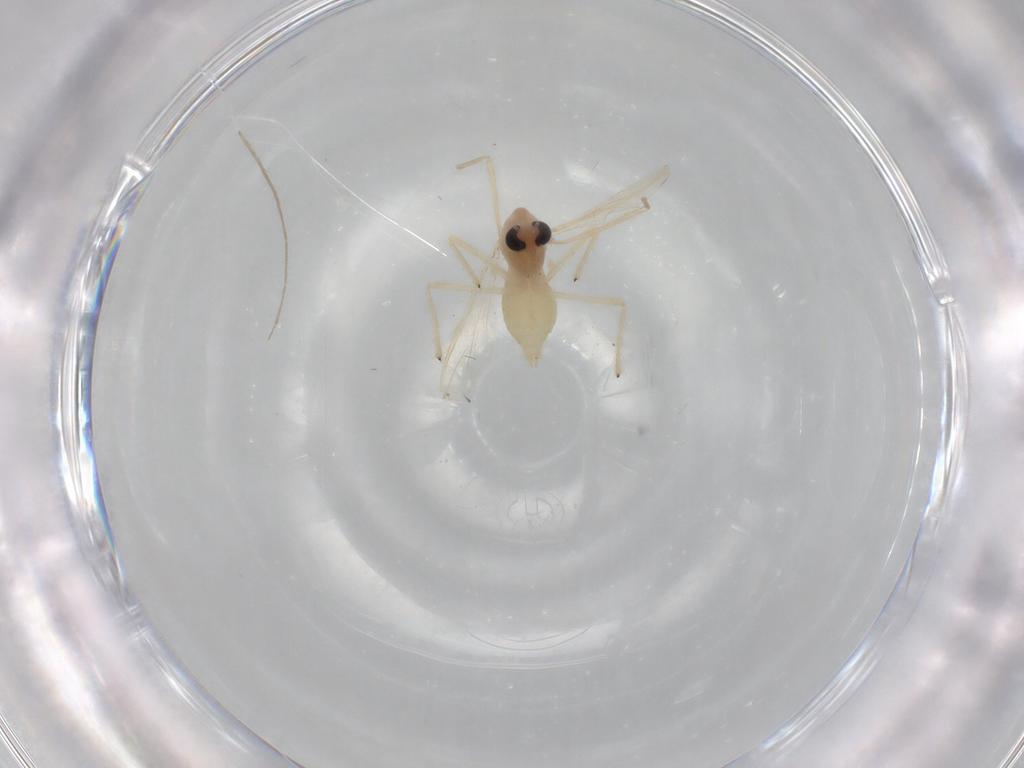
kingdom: Animalia
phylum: Arthropoda
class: Insecta
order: Diptera
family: Chironomidae
